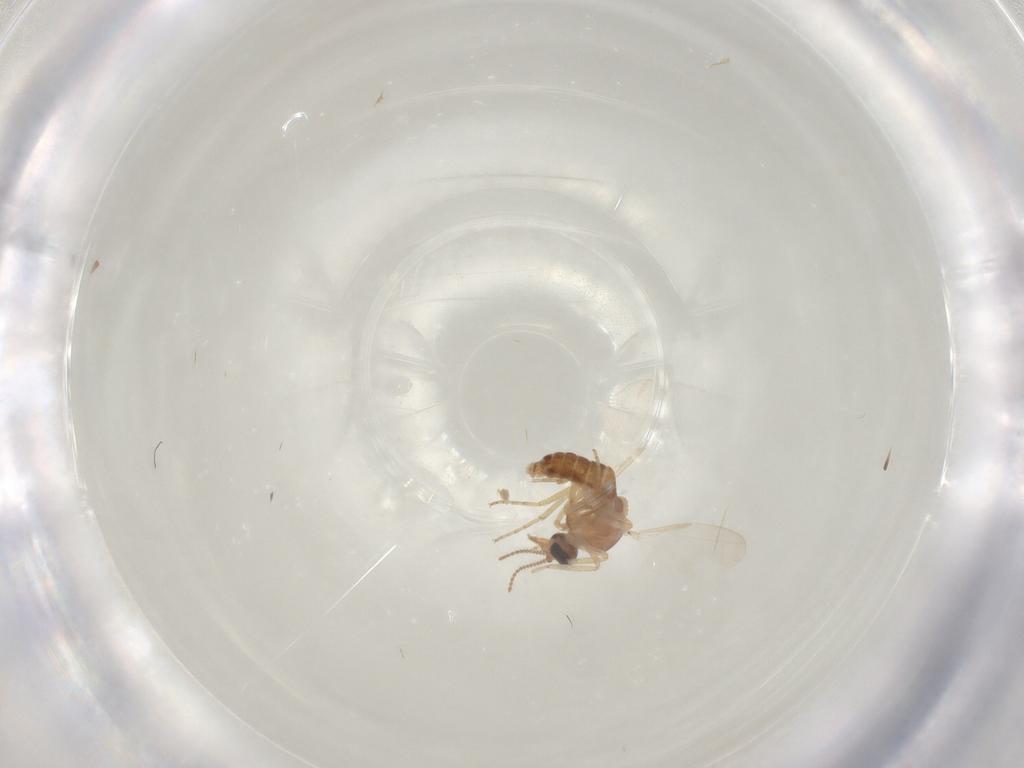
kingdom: Animalia
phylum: Arthropoda
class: Insecta
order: Diptera
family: Ceratopogonidae
